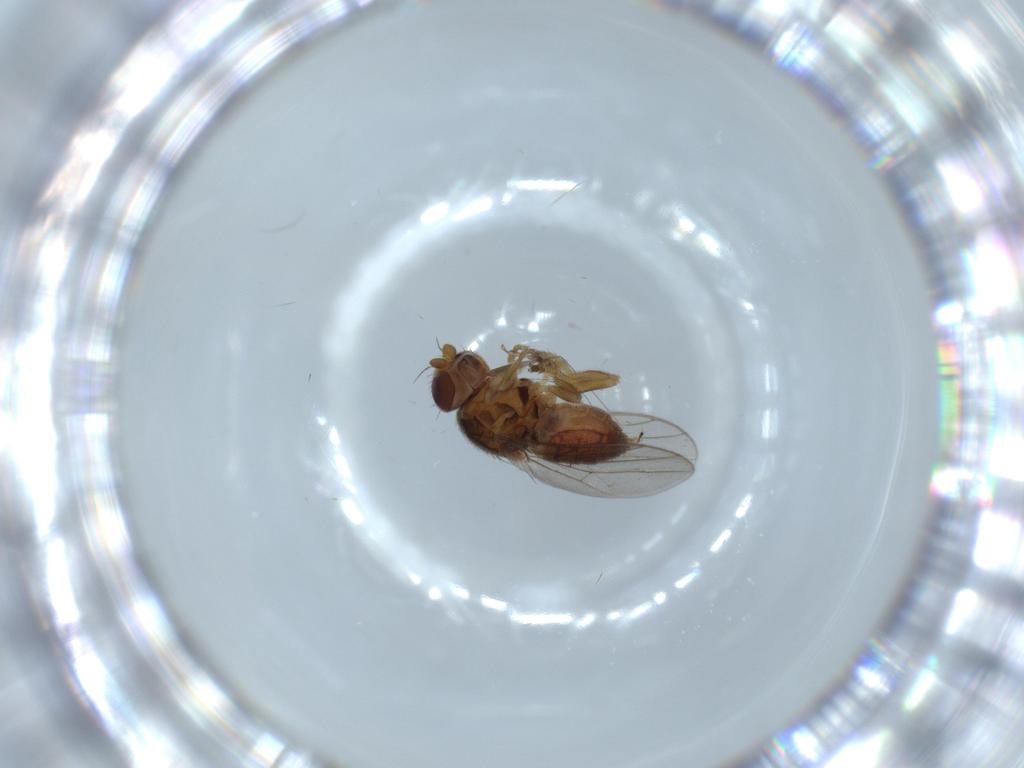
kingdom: Animalia
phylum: Arthropoda
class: Insecta
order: Diptera
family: Chloropidae
